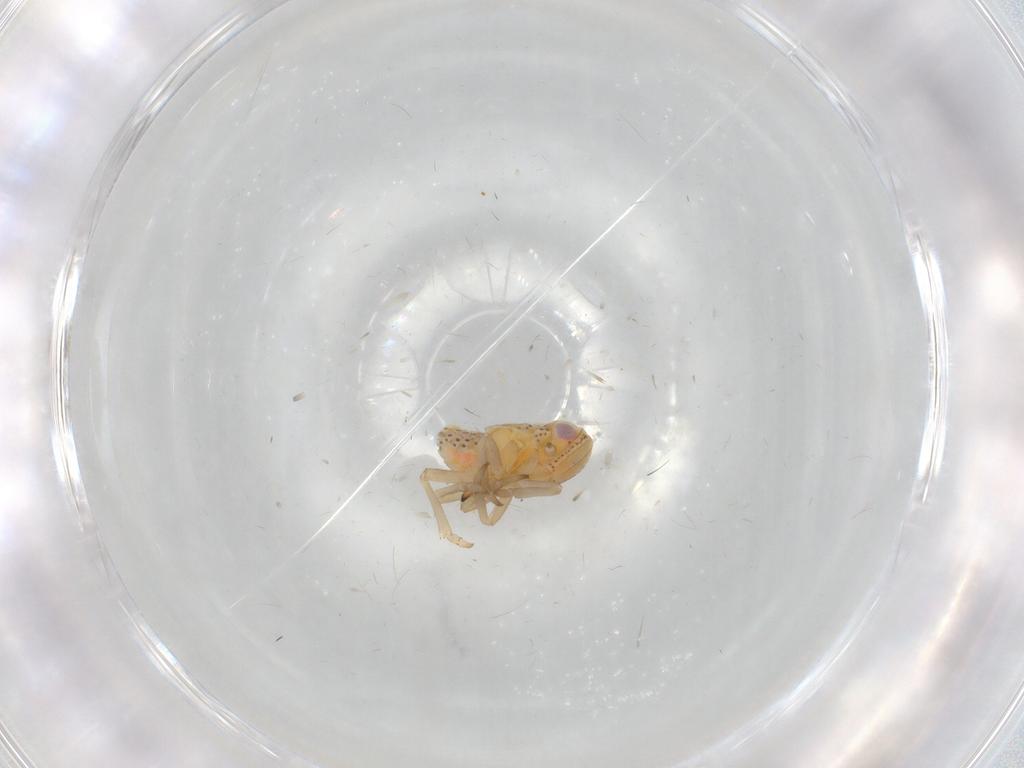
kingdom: Animalia
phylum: Arthropoda
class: Insecta
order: Hemiptera
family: Tropiduchidae
